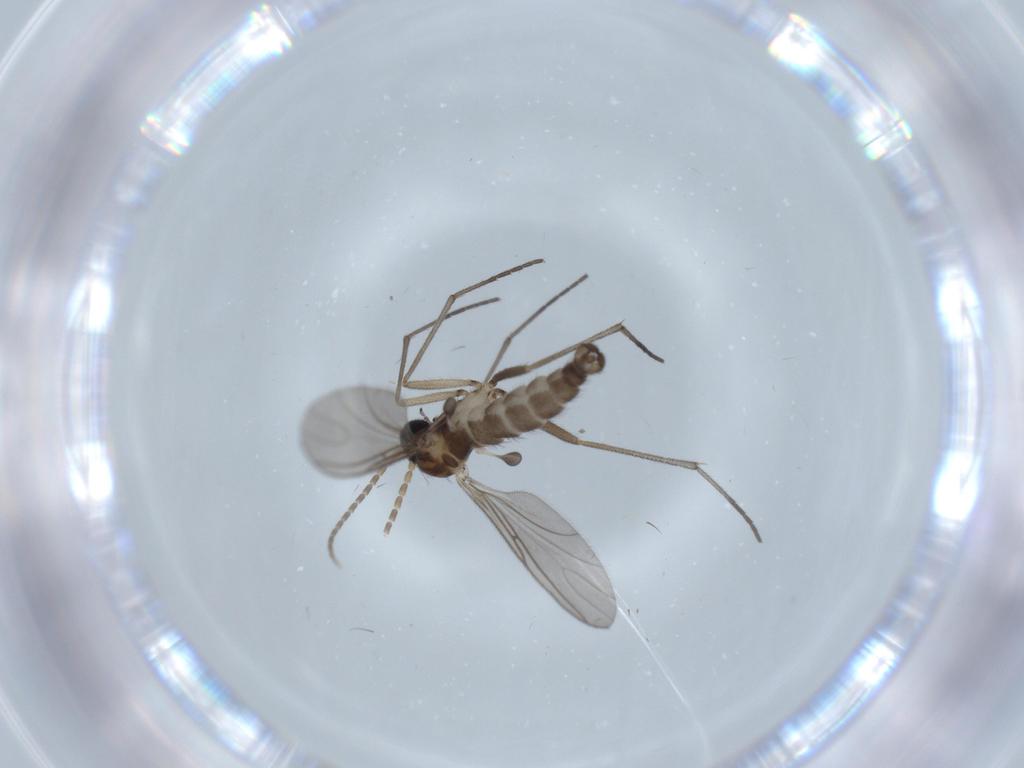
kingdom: Animalia
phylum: Arthropoda
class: Insecta
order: Diptera
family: Sciaridae
